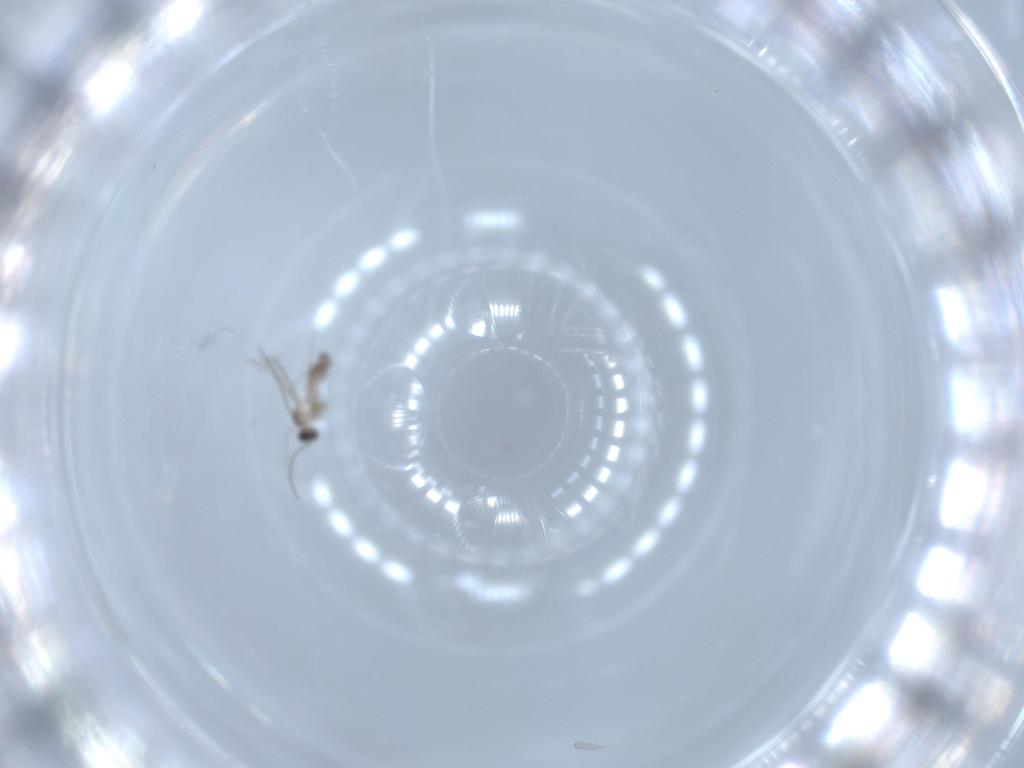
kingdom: Animalia
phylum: Arthropoda
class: Insecta
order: Diptera
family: Cecidomyiidae
